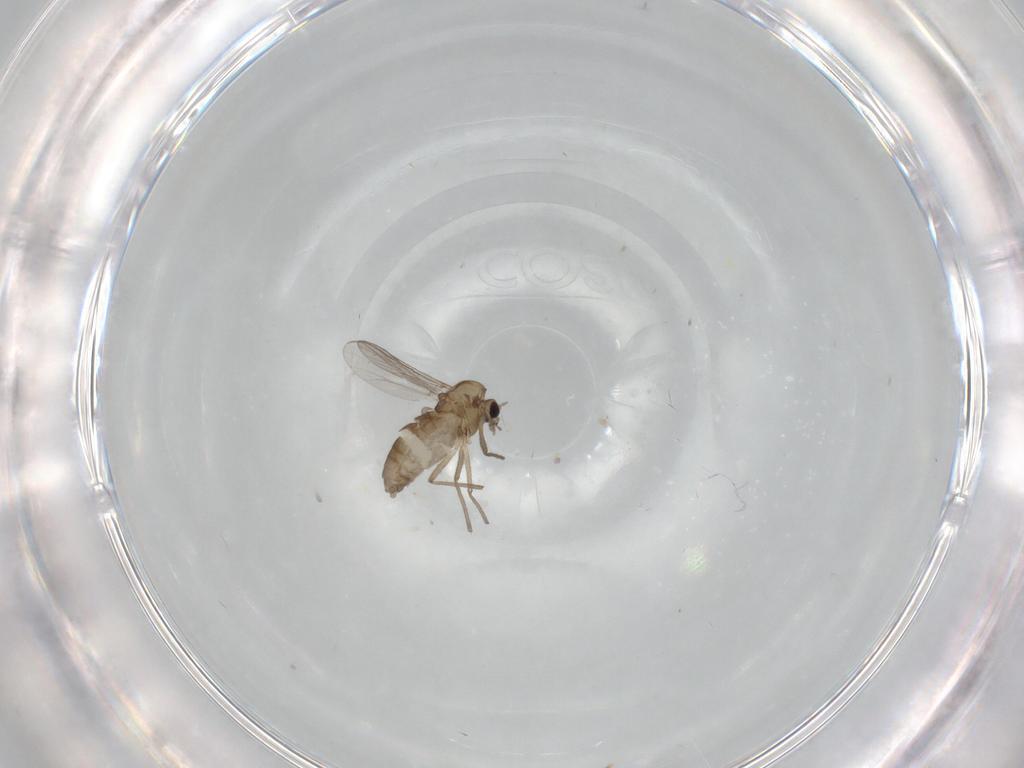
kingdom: Animalia
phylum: Arthropoda
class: Insecta
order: Diptera
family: Chironomidae
